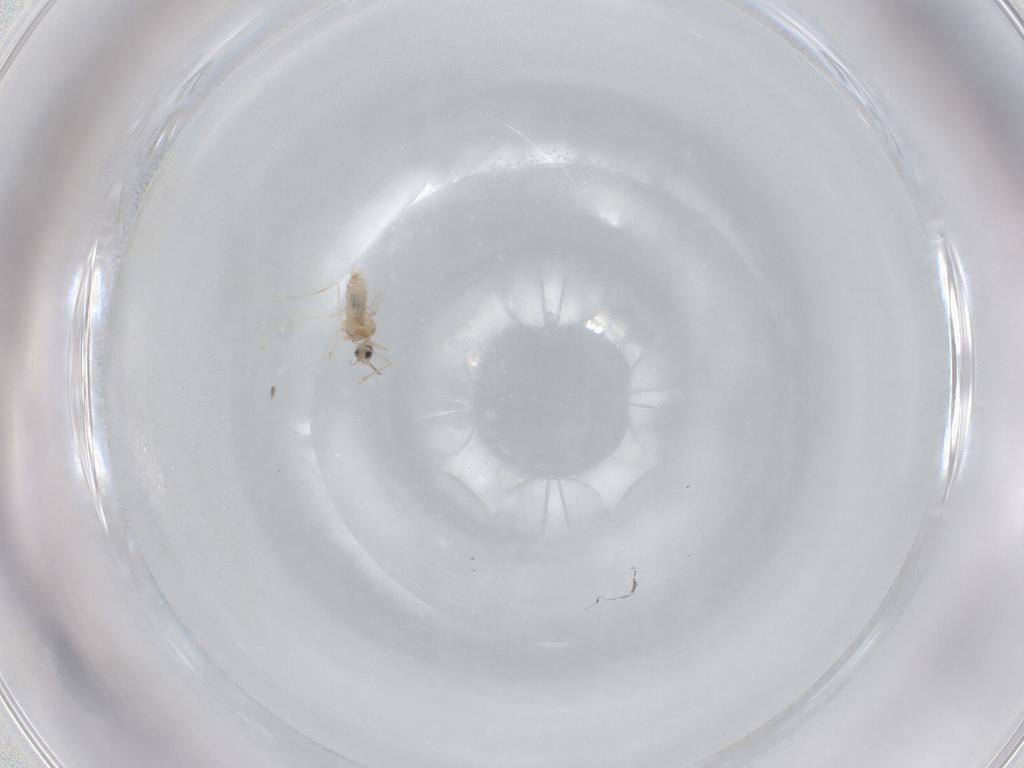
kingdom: Animalia
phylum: Arthropoda
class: Insecta
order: Diptera
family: Cecidomyiidae
